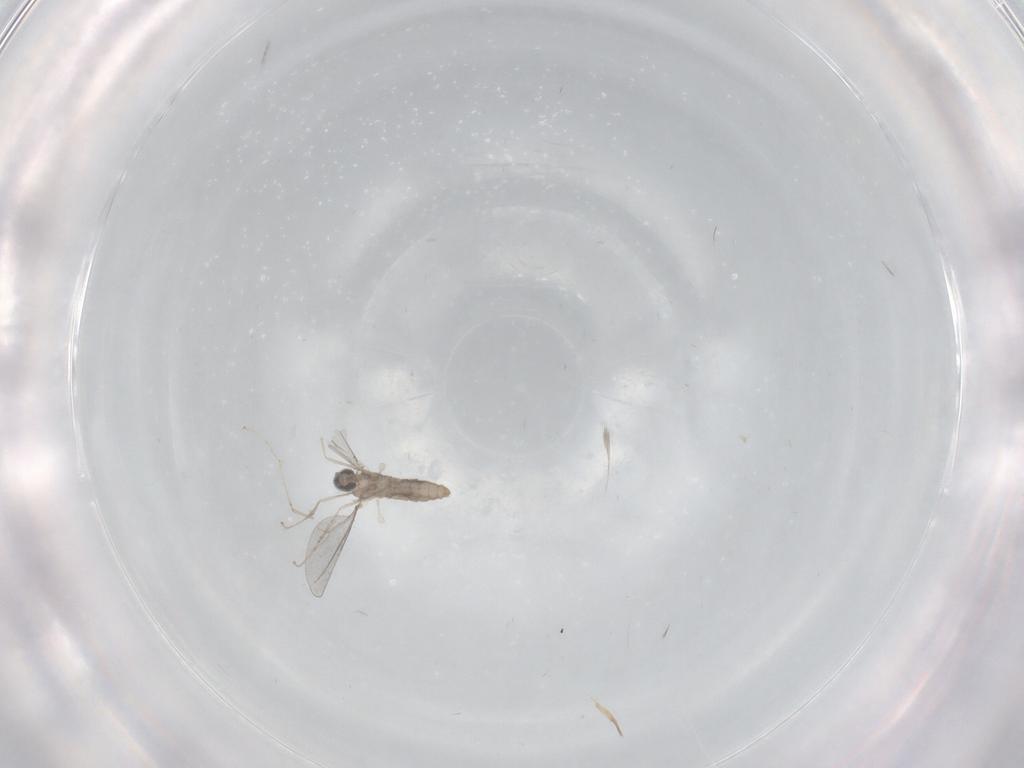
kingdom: Animalia
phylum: Arthropoda
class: Insecta
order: Diptera
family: Cecidomyiidae
